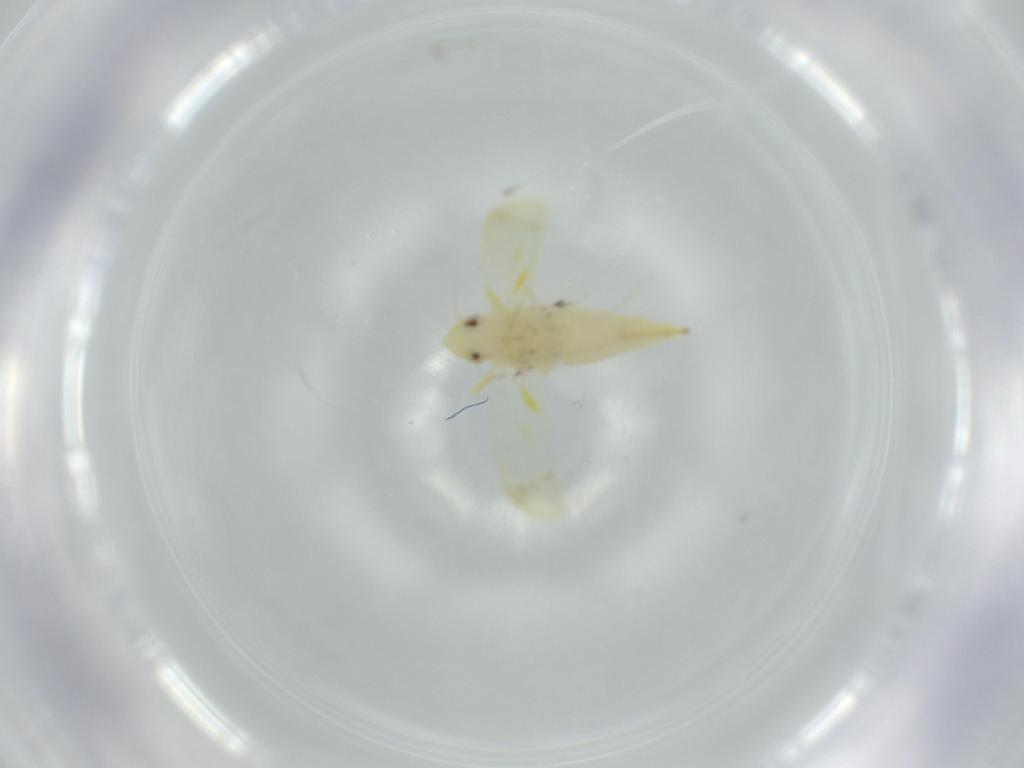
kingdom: Animalia
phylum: Arthropoda
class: Insecta
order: Hemiptera
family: Cicadellidae
